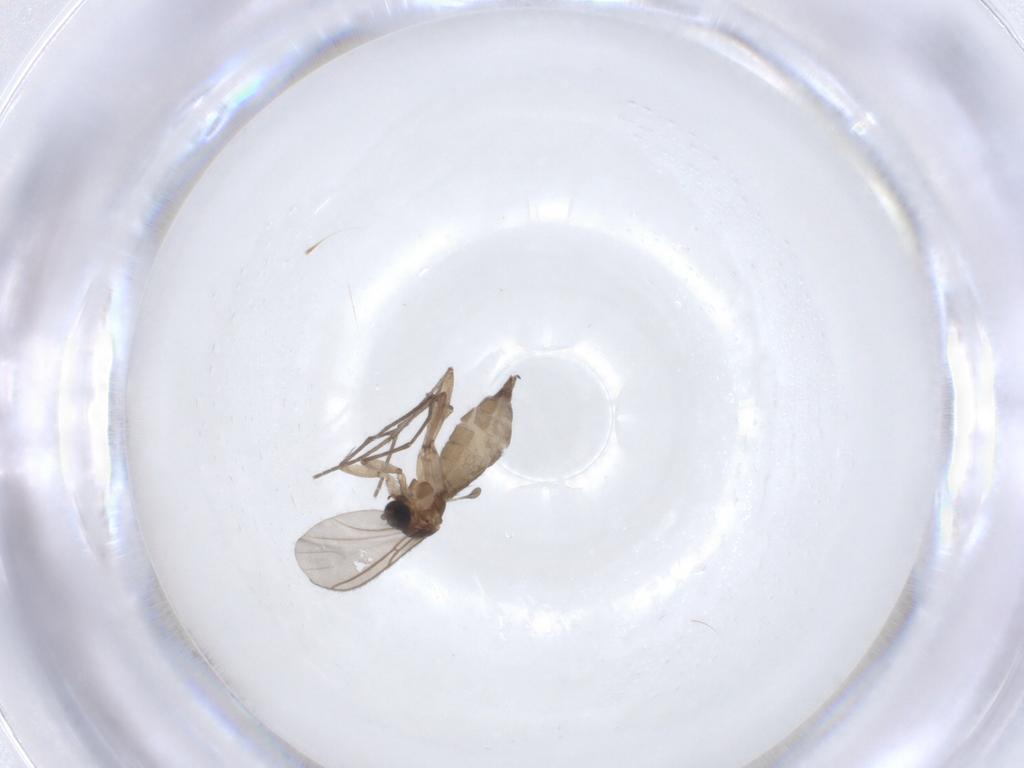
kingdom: Animalia
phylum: Arthropoda
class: Insecta
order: Diptera
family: Sciaridae
